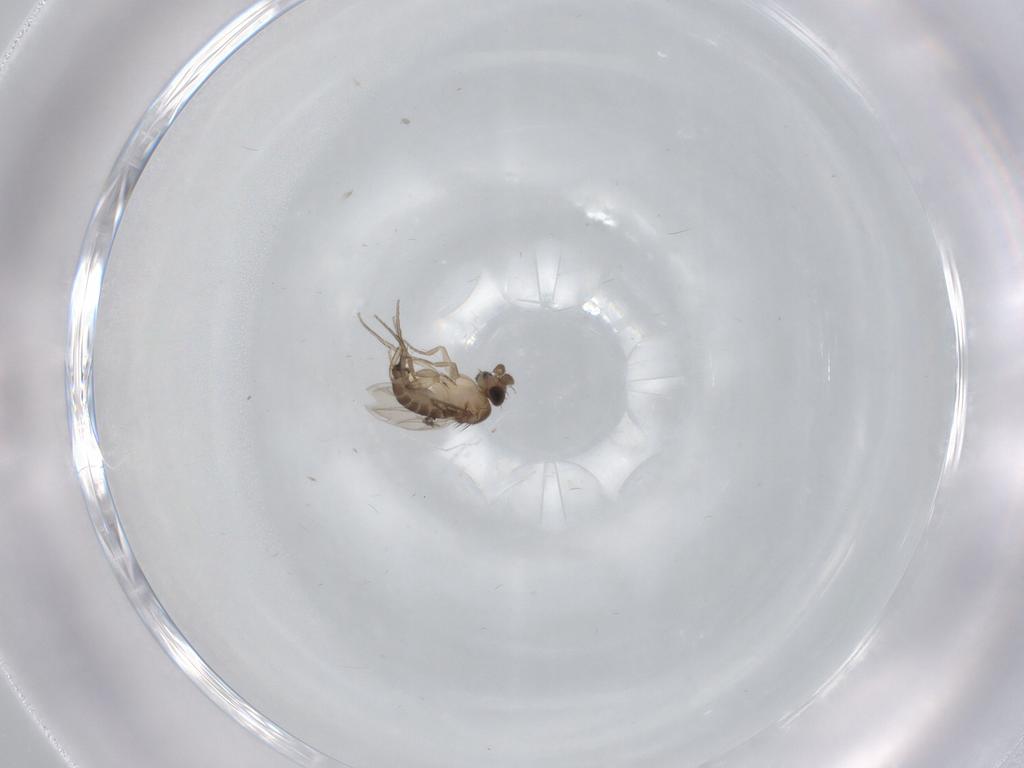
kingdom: Animalia
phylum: Arthropoda
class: Insecta
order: Diptera
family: Phoridae
